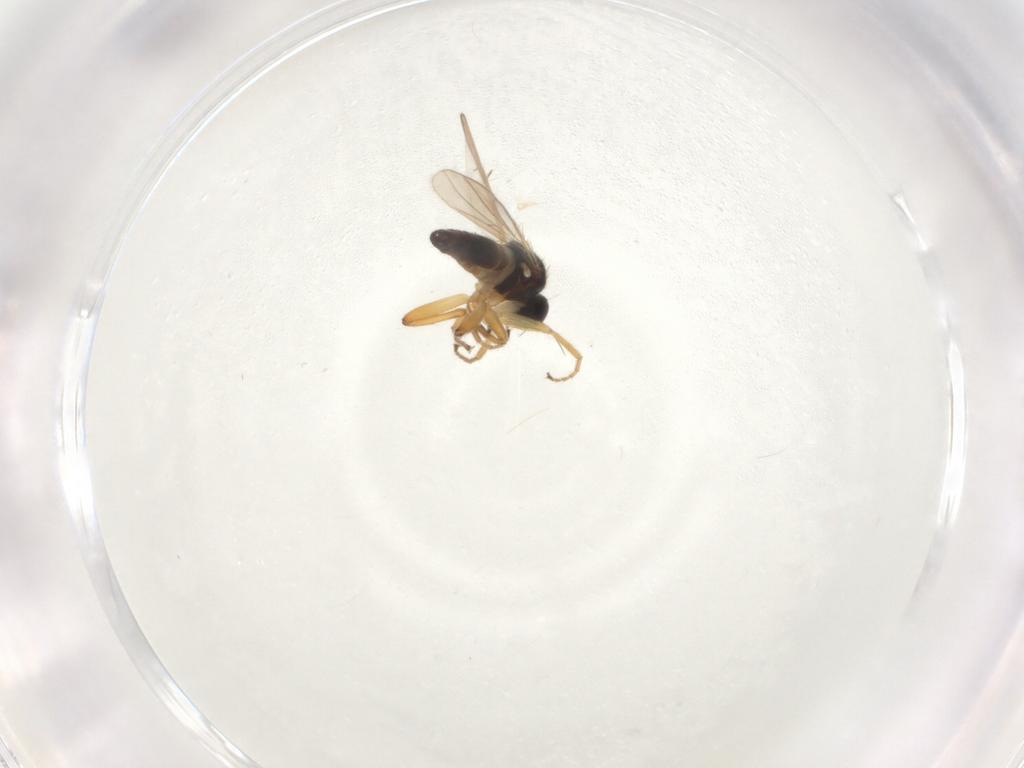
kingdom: Animalia
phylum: Arthropoda
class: Insecta
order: Diptera
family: Hybotidae
